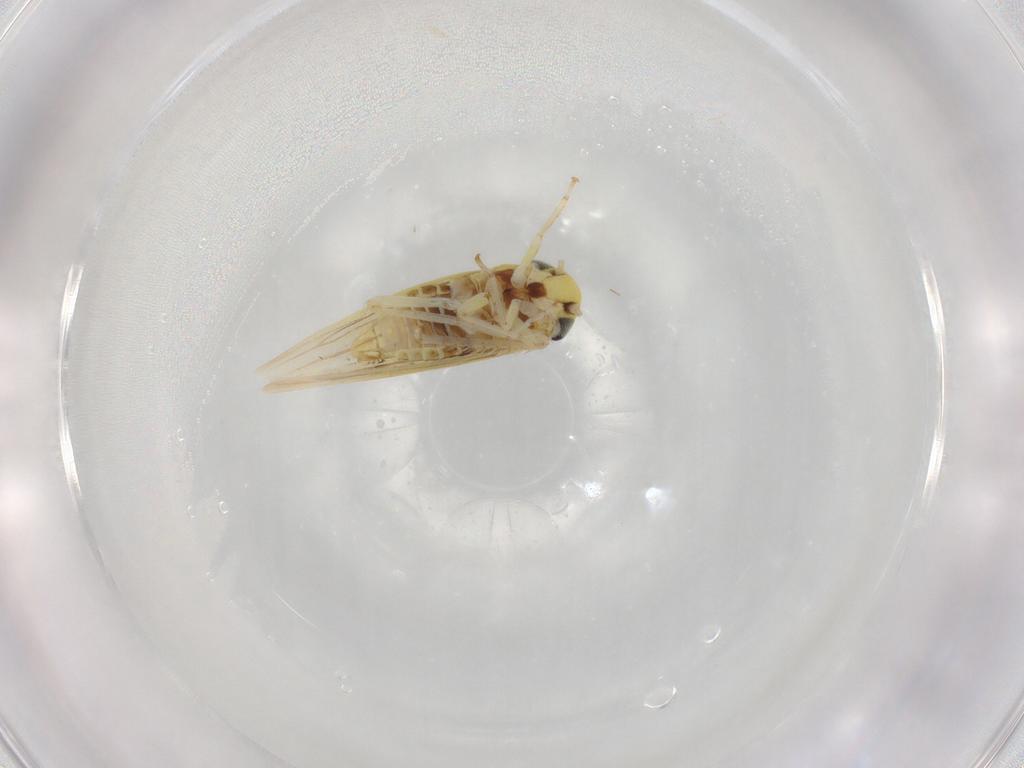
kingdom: Animalia
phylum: Arthropoda
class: Insecta
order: Hemiptera
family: Cicadellidae
